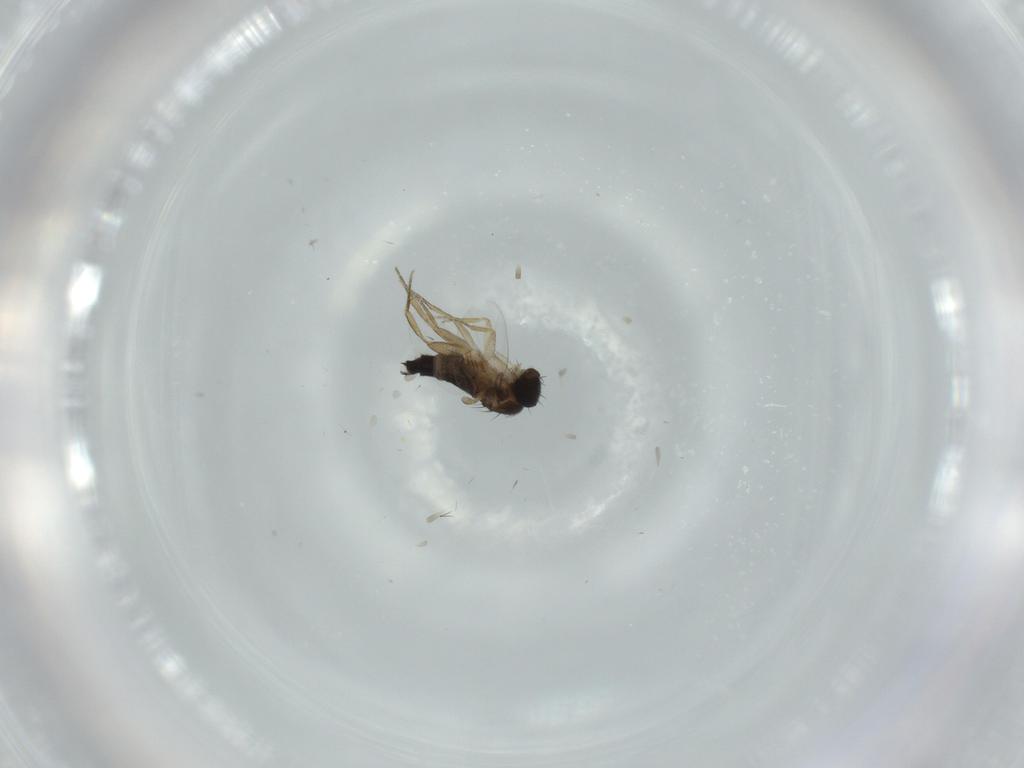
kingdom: Animalia
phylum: Arthropoda
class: Insecta
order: Diptera
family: Phoridae
